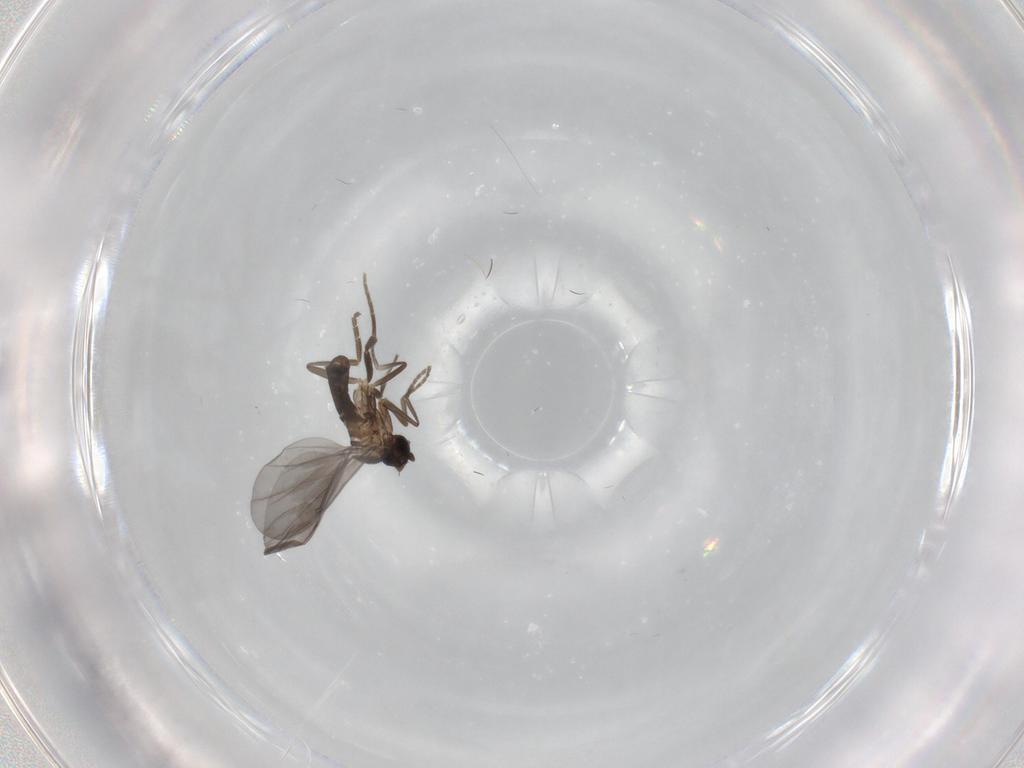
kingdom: Animalia
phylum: Arthropoda
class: Insecta
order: Diptera
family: Phoridae
